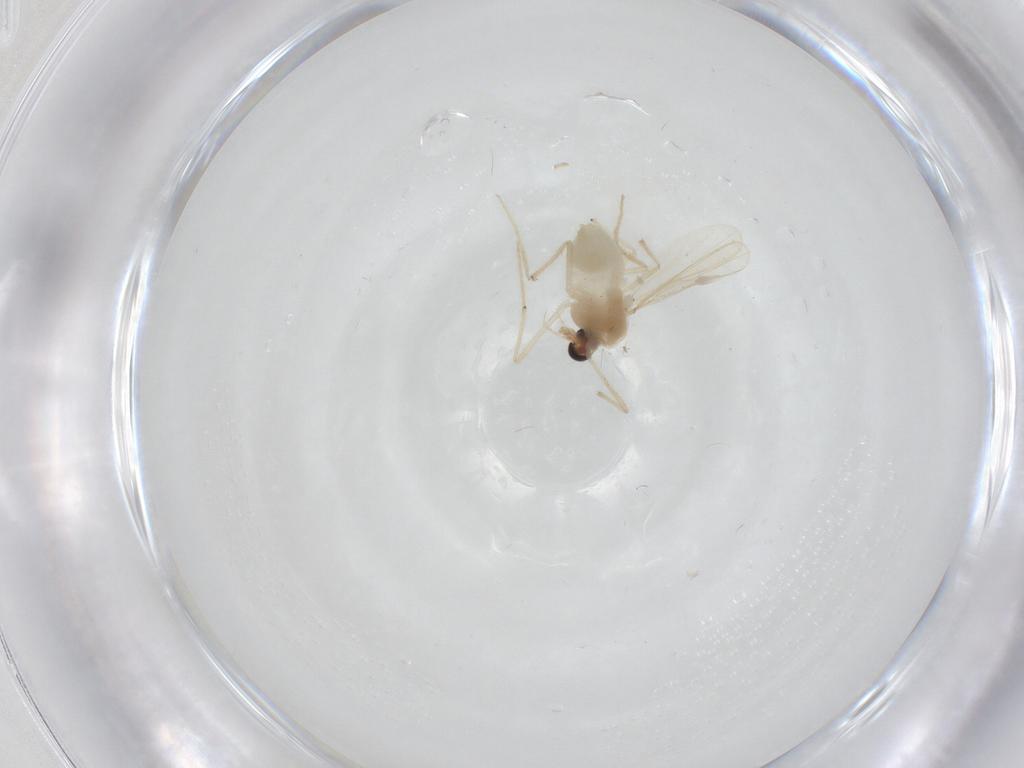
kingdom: Animalia
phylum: Arthropoda
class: Insecta
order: Diptera
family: Chironomidae
